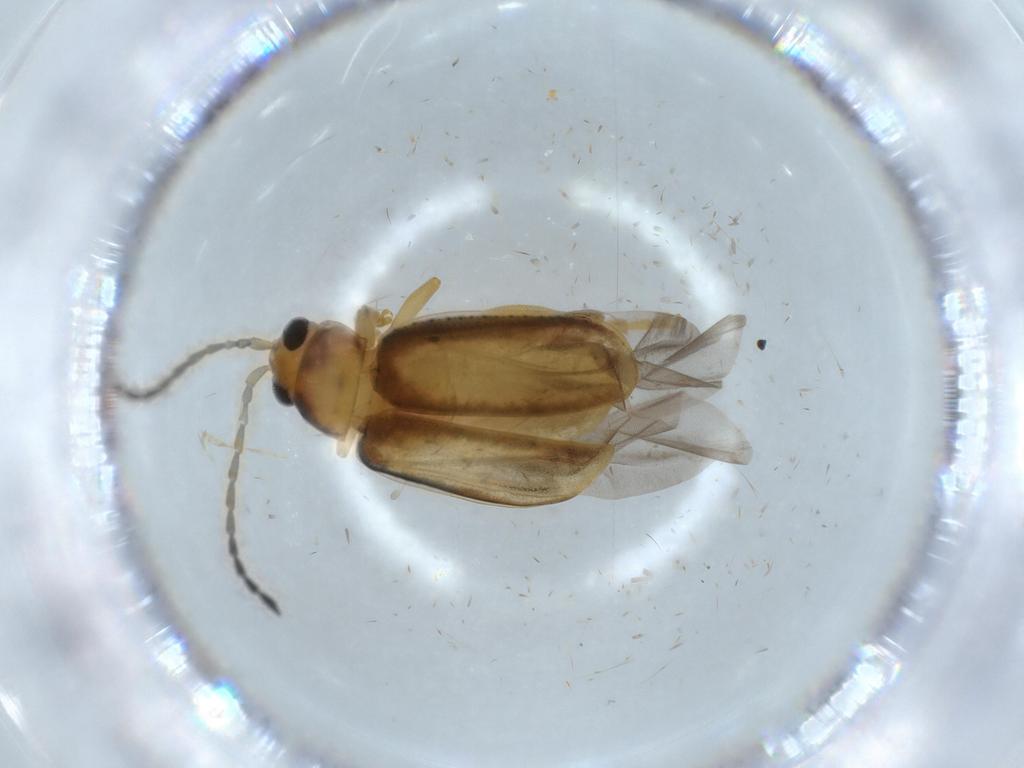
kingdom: Animalia
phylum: Arthropoda
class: Insecta
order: Coleoptera
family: Chrysomelidae
